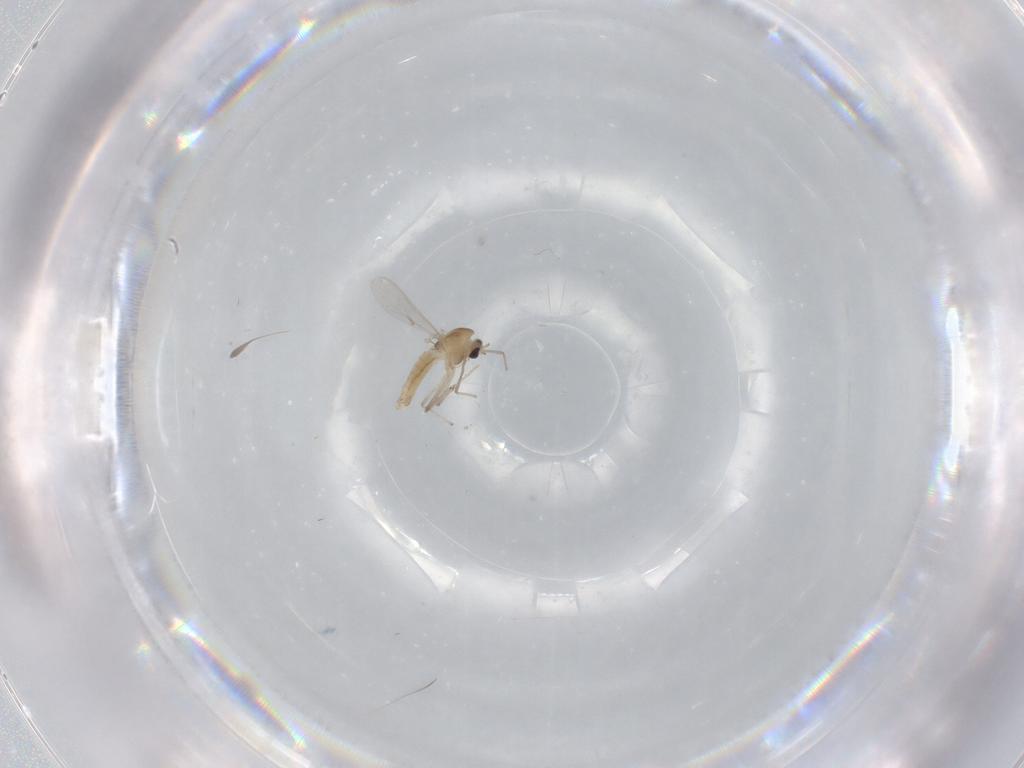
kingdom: Animalia
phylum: Arthropoda
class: Insecta
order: Diptera
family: Chironomidae
